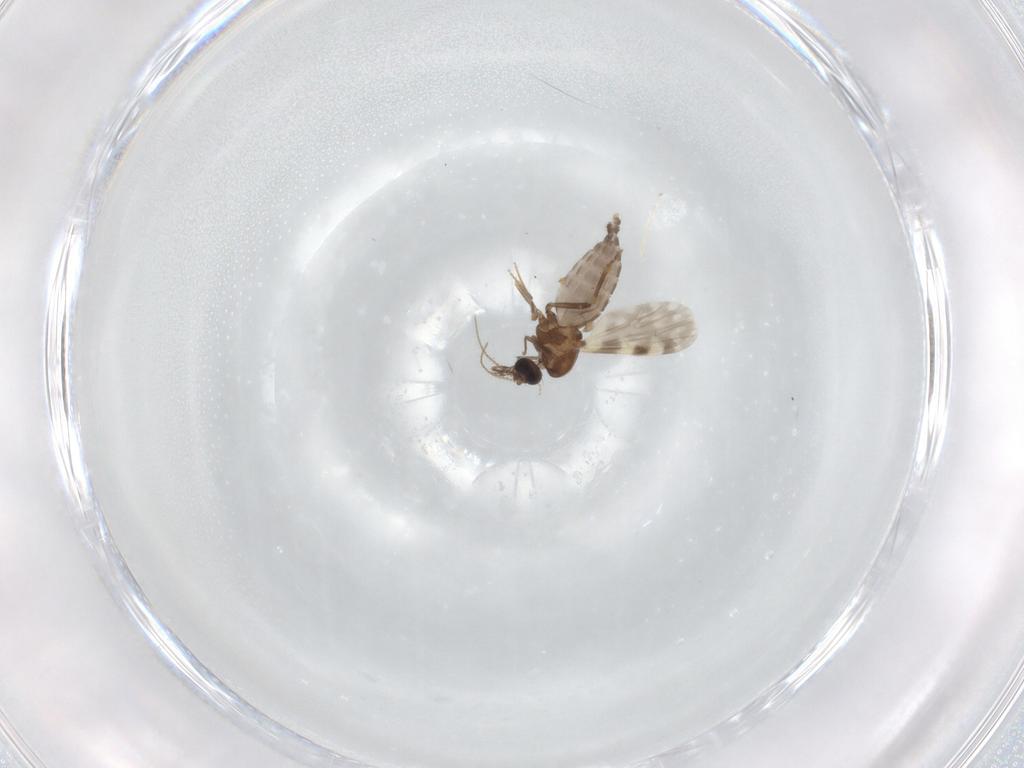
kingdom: Animalia
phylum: Arthropoda
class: Insecta
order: Diptera
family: Ceratopogonidae
